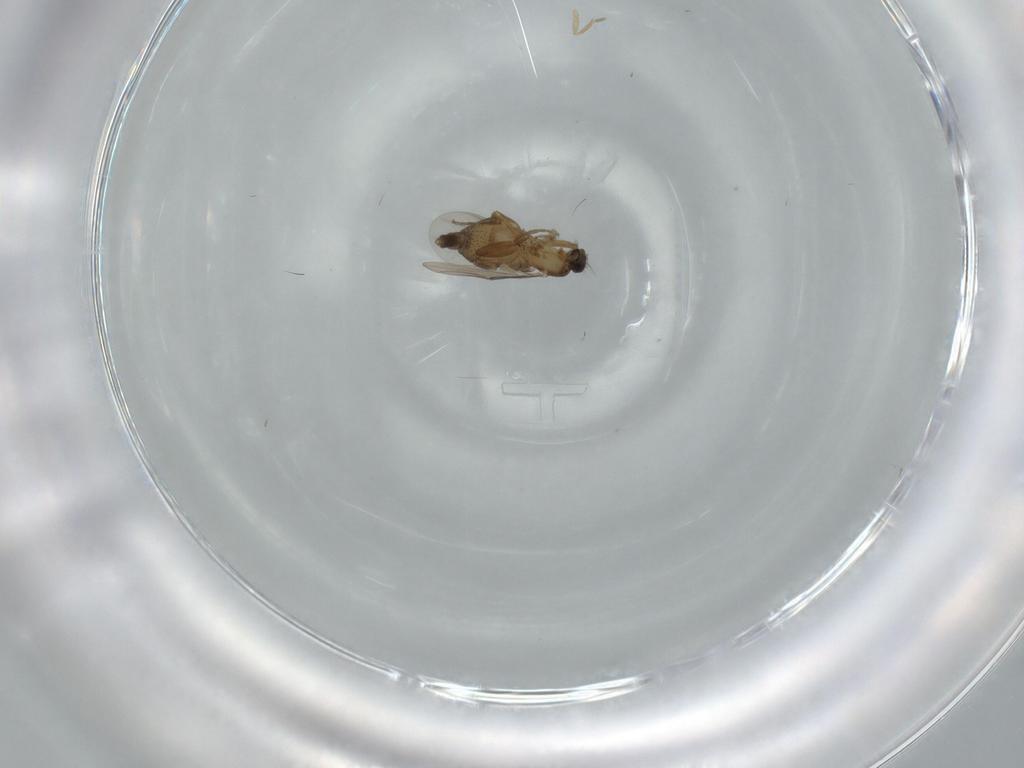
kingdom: Animalia
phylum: Arthropoda
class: Insecta
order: Diptera
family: Phoridae
